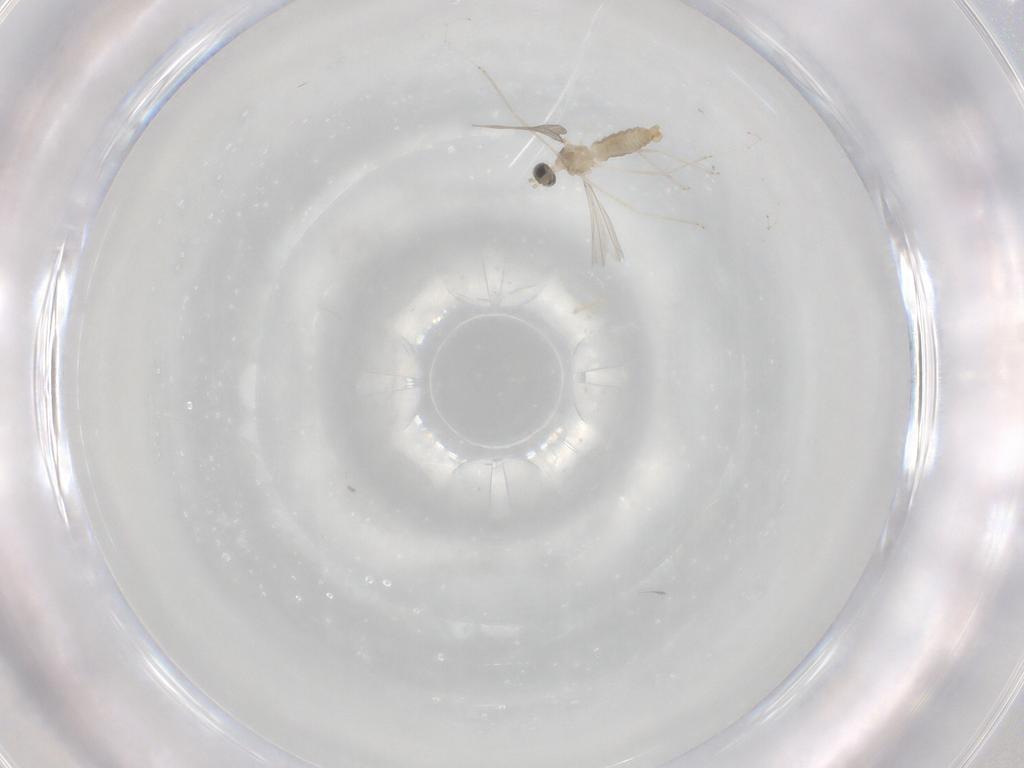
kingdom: Animalia
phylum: Arthropoda
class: Insecta
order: Diptera
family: Cecidomyiidae
